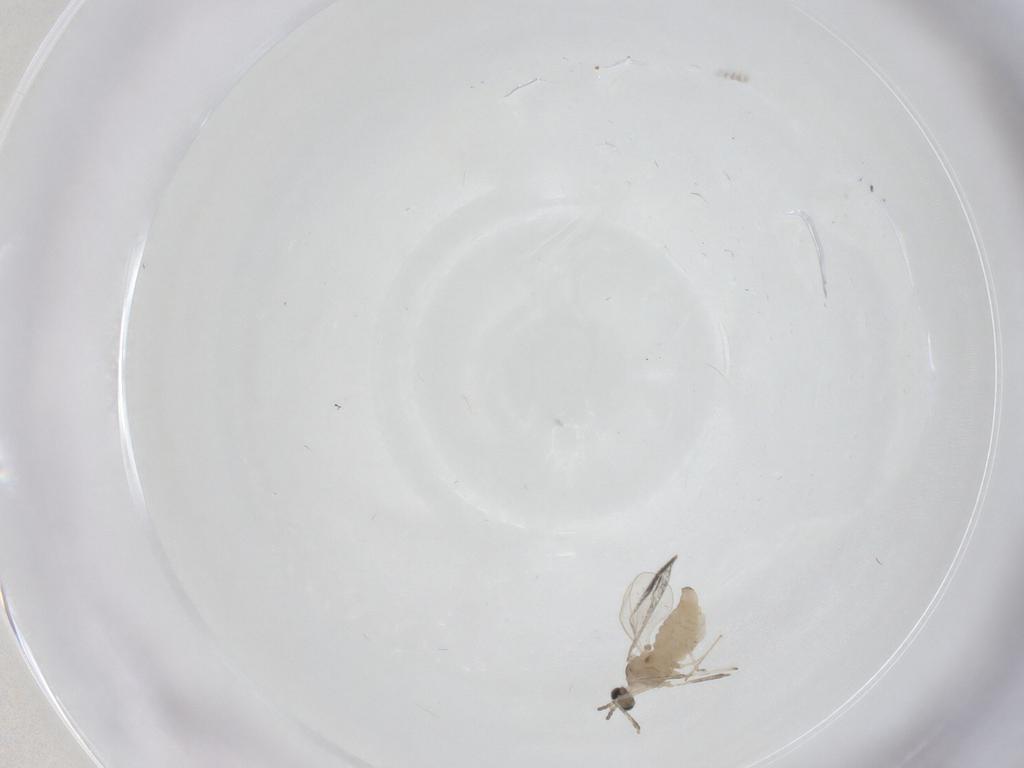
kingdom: Animalia
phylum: Arthropoda
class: Insecta
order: Diptera
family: Cecidomyiidae
